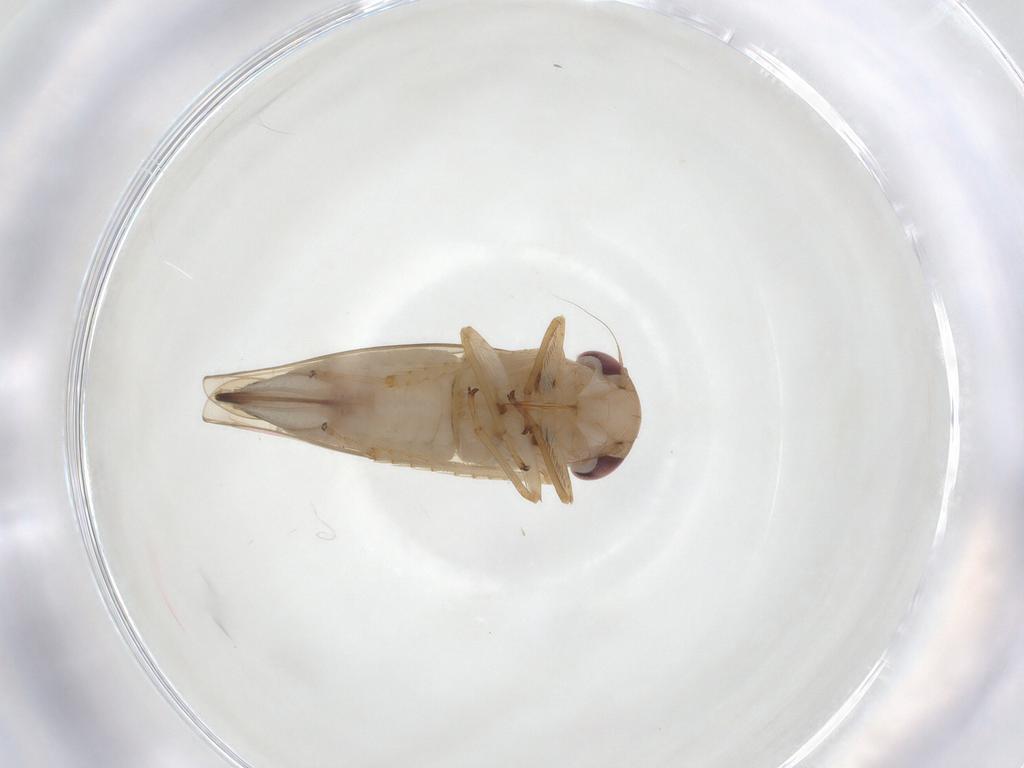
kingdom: Animalia
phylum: Arthropoda
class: Insecta
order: Hemiptera
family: Cicadellidae
